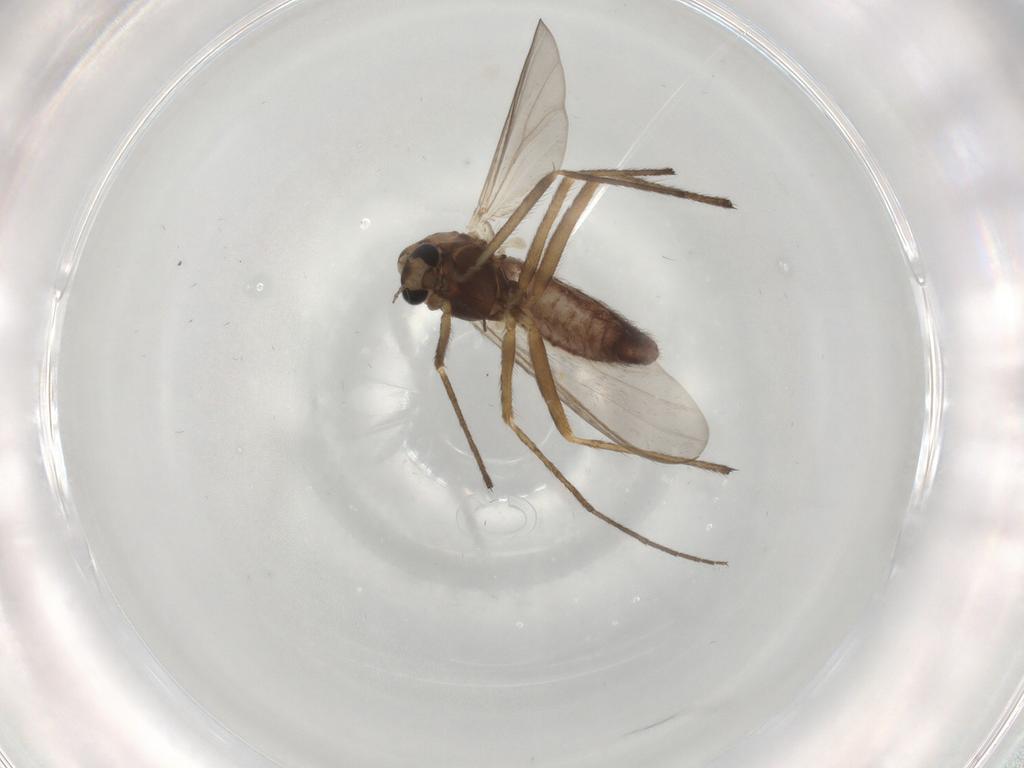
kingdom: Animalia
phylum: Arthropoda
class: Insecta
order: Diptera
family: Chironomidae
